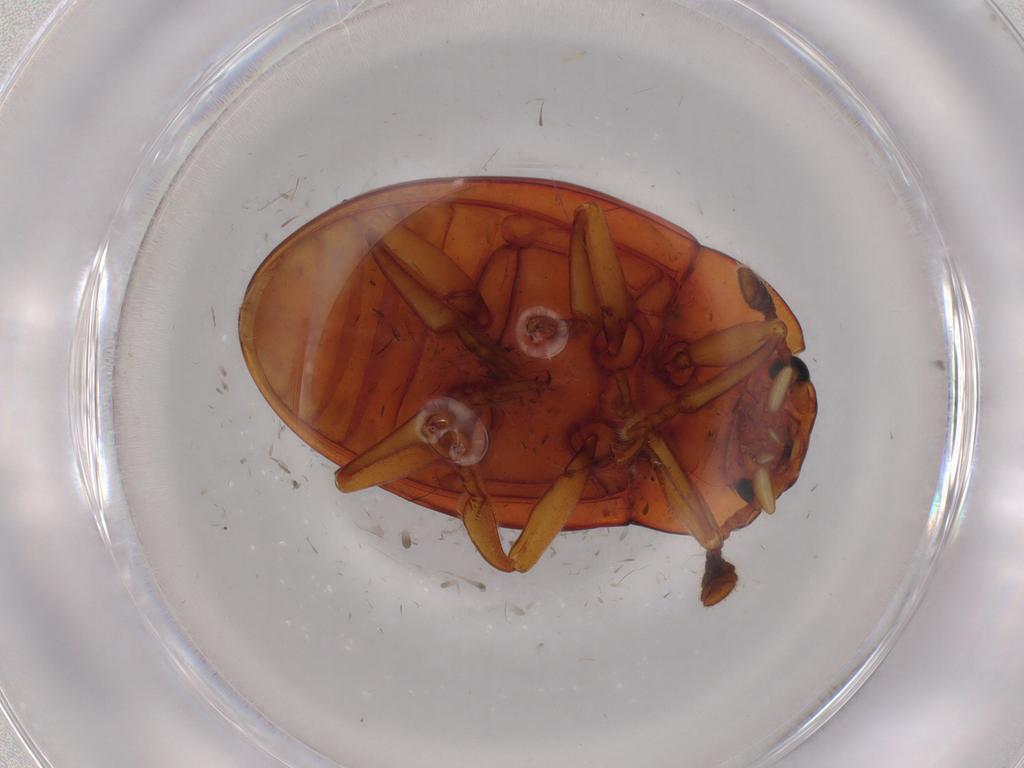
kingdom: Animalia
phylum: Arthropoda
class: Insecta
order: Coleoptera
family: Erotylidae
